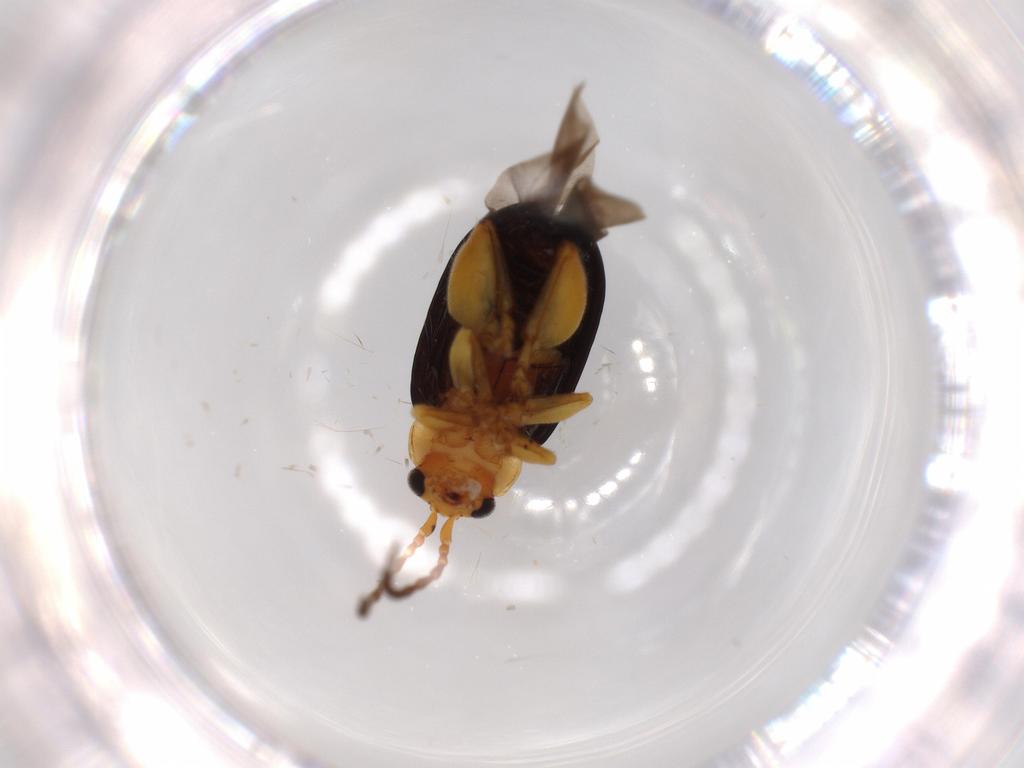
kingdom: Animalia
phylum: Arthropoda
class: Insecta
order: Coleoptera
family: Chrysomelidae
